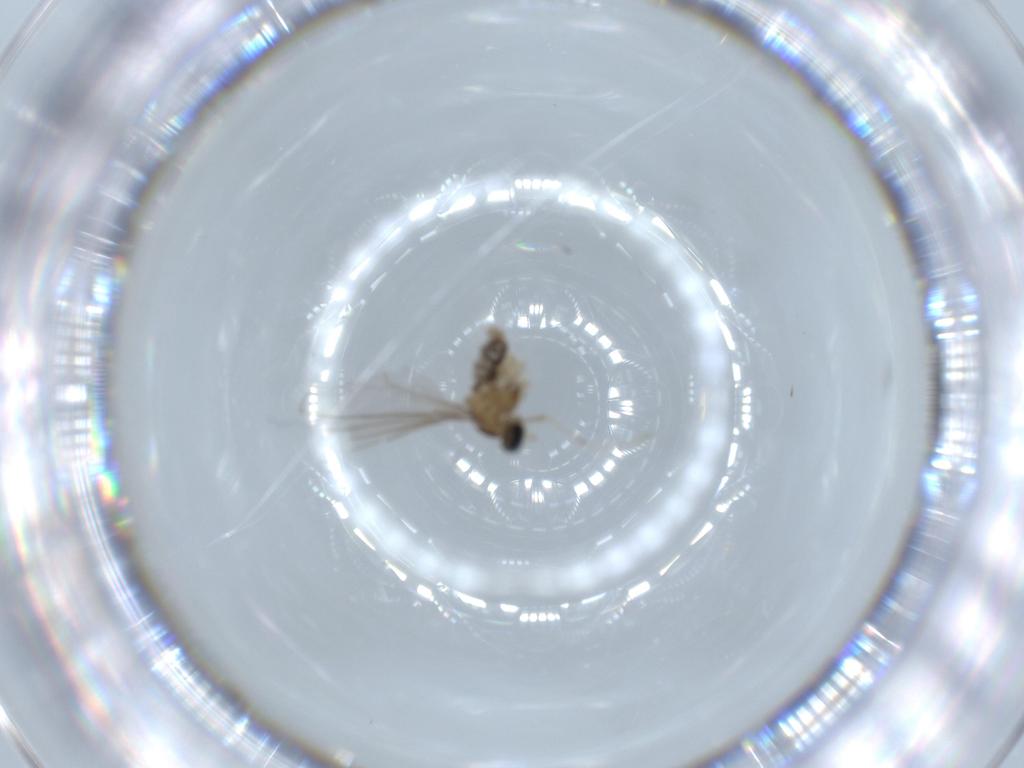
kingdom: Animalia
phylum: Arthropoda
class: Insecta
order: Diptera
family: Cecidomyiidae
